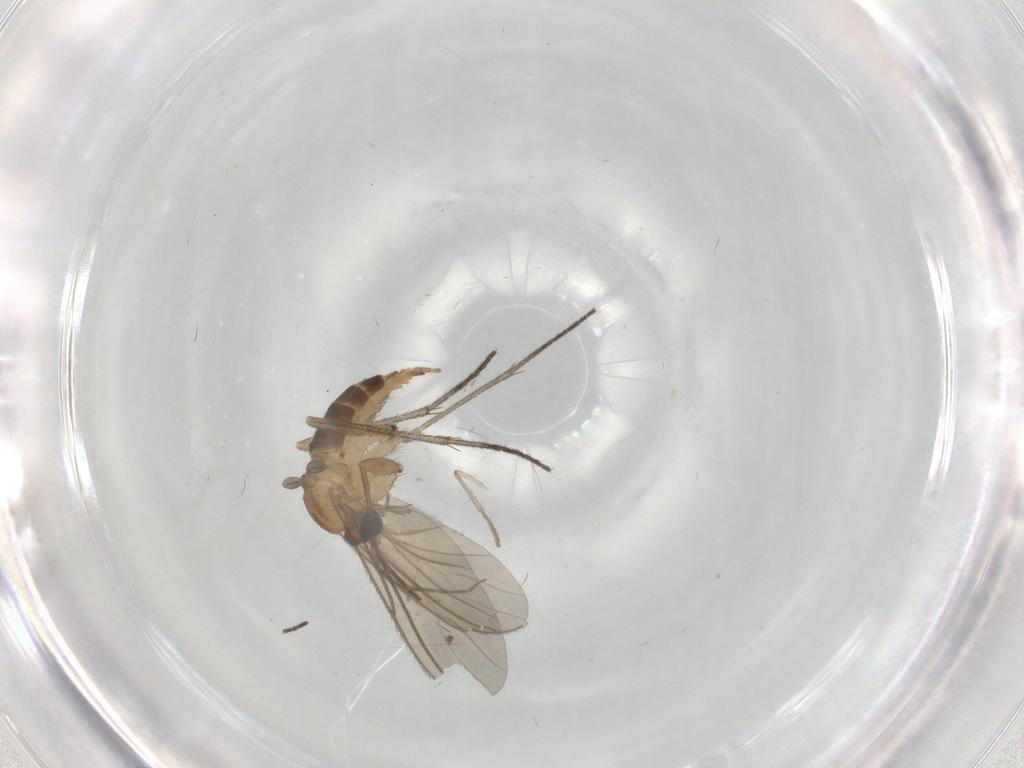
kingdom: Animalia
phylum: Arthropoda
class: Insecta
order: Diptera
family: Sciaridae
